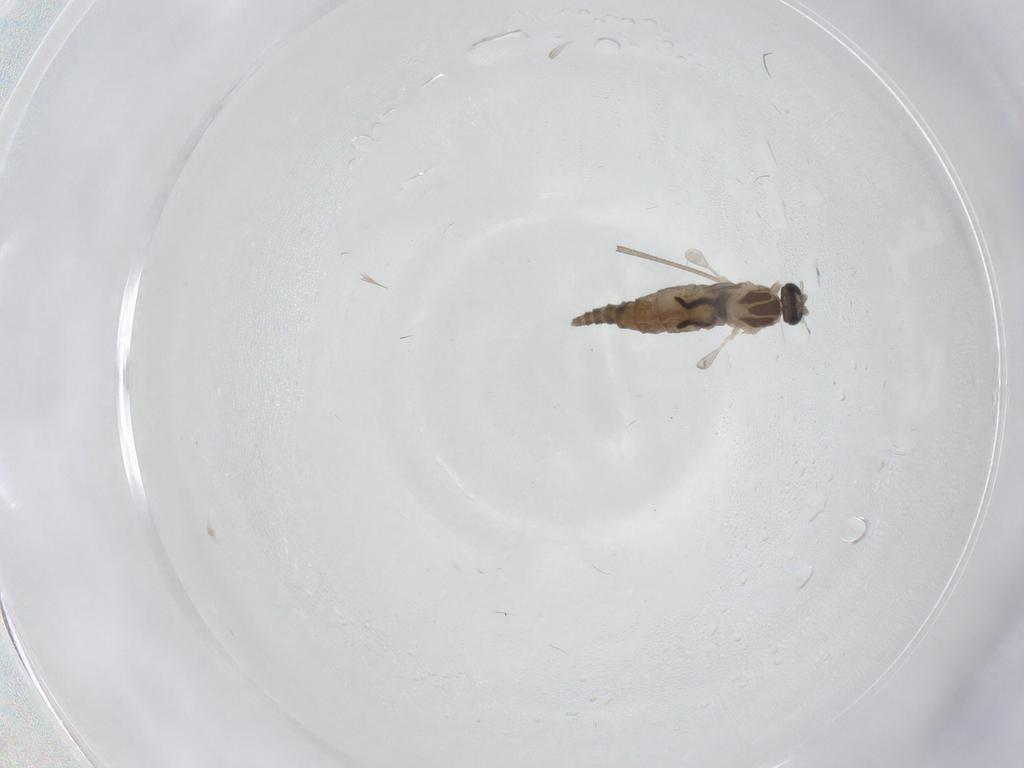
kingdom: Animalia
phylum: Arthropoda
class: Insecta
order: Diptera
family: Cecidomyiidae
